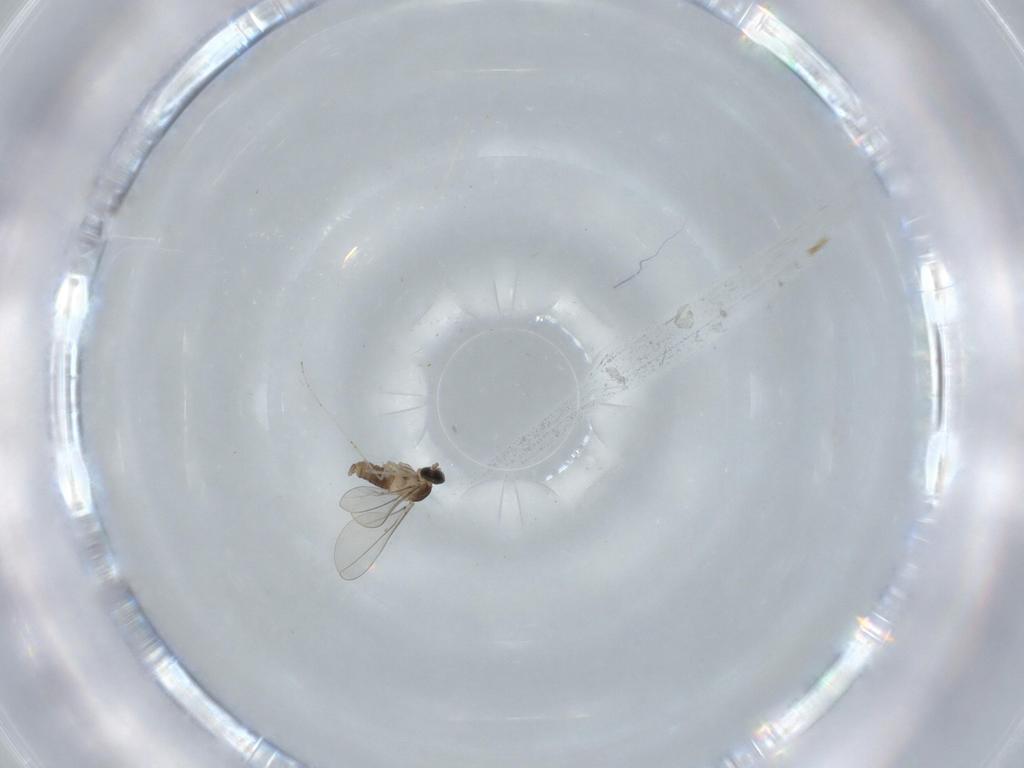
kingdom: Animalia
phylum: Arthropoda
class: Insecta
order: Diptera
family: Cecidomyiidae
